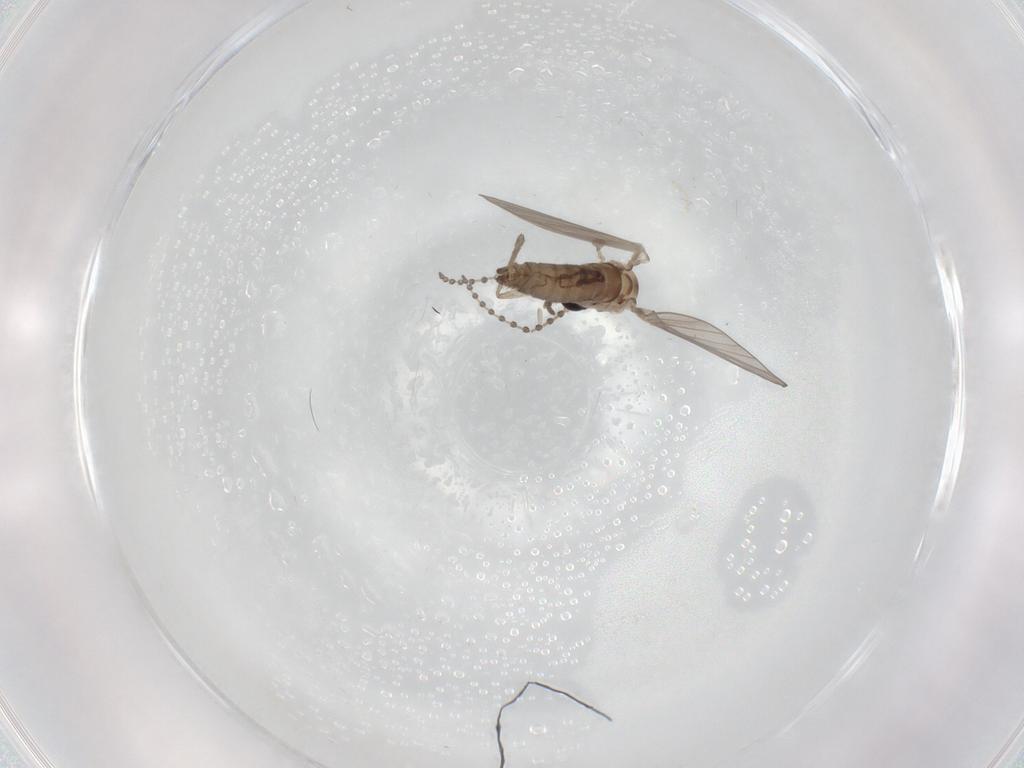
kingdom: Animalia
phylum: Arthropoda
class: Insecta
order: Diptera
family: Psychodidae
